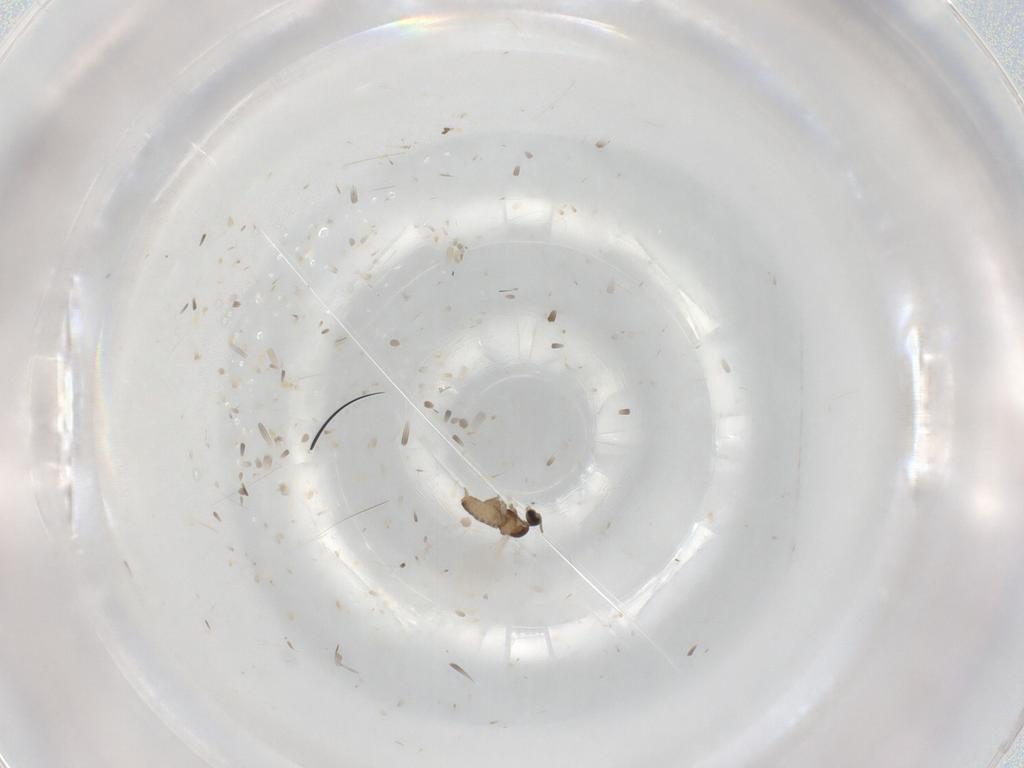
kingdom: Animalia
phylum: Arthropoda
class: Insecta
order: Diptera
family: Cecidomyiidae
